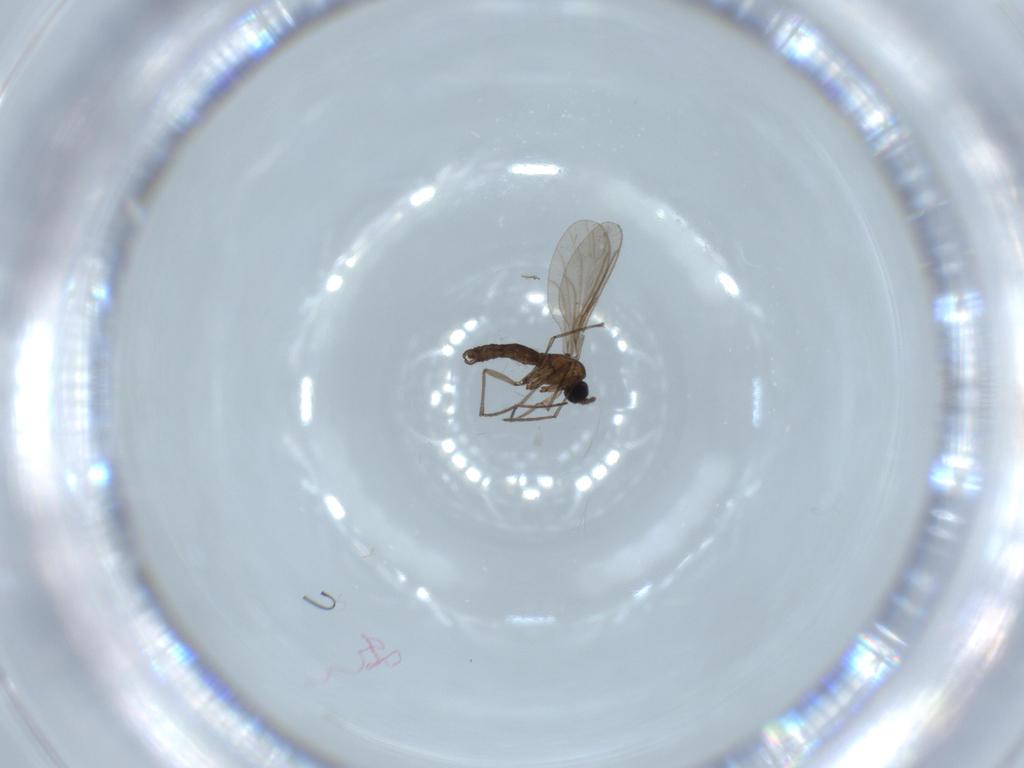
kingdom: Animalia
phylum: Arthropoda
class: Insecta
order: Diptera
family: Sciaridae
